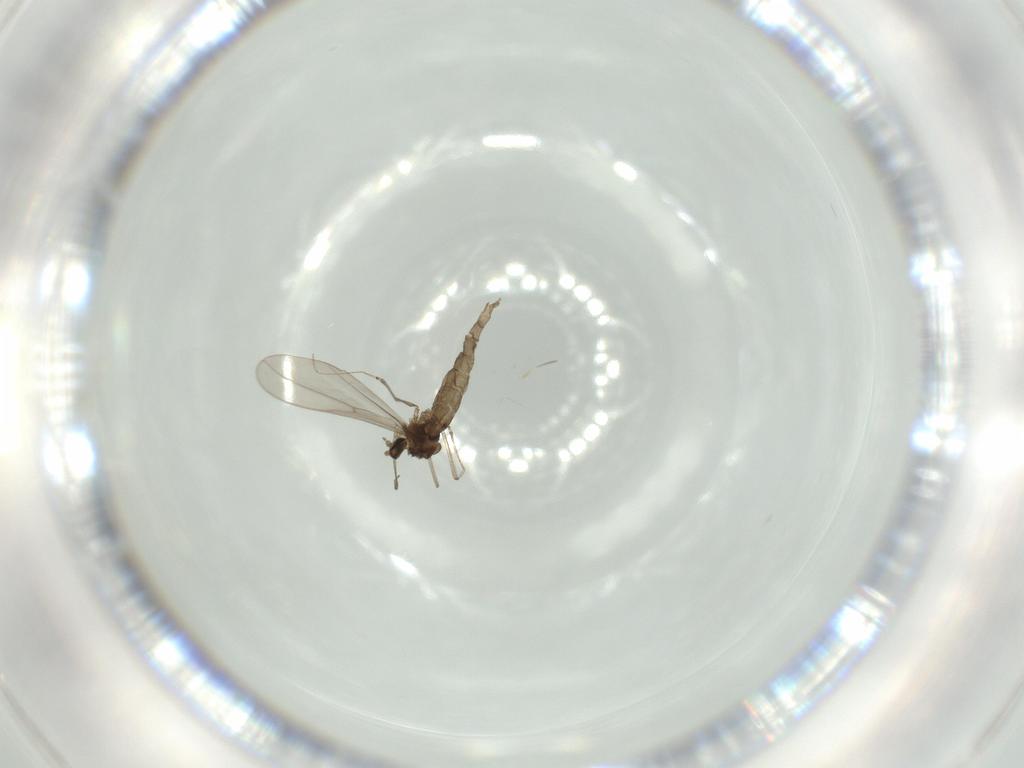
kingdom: Animalia
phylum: Arthropoda
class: Insecta
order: Diptera
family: Cecidomyiidae
